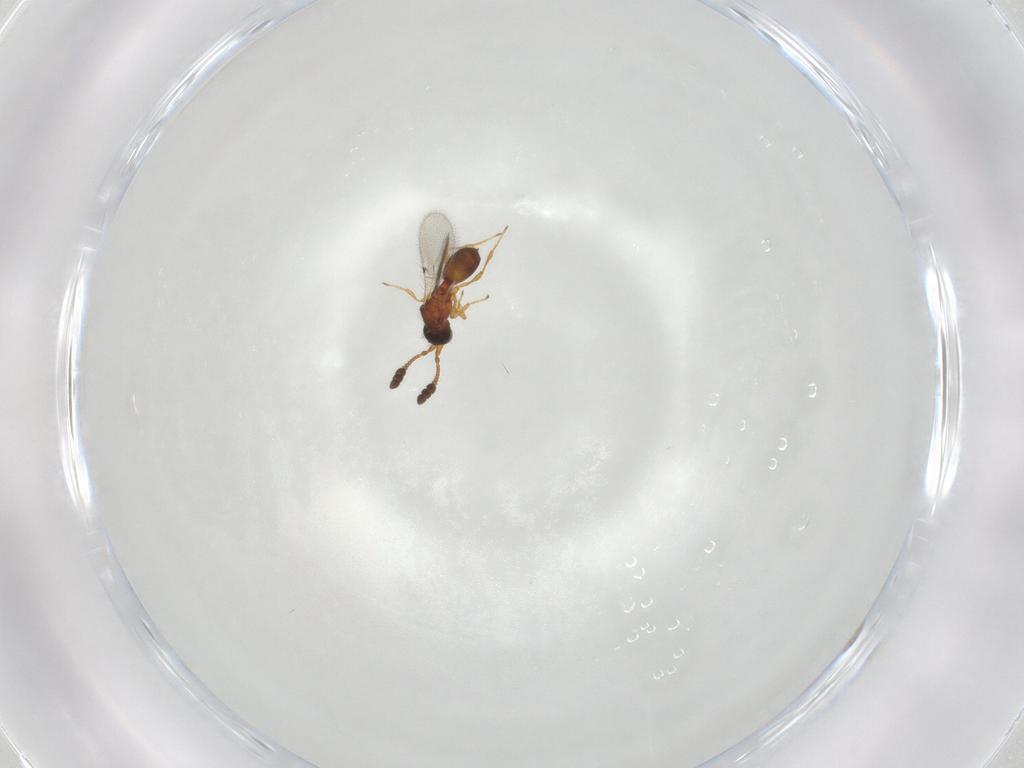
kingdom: Animalia
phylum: Arthropoda
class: Insecta
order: Hymenoptera
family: Diapriidae
